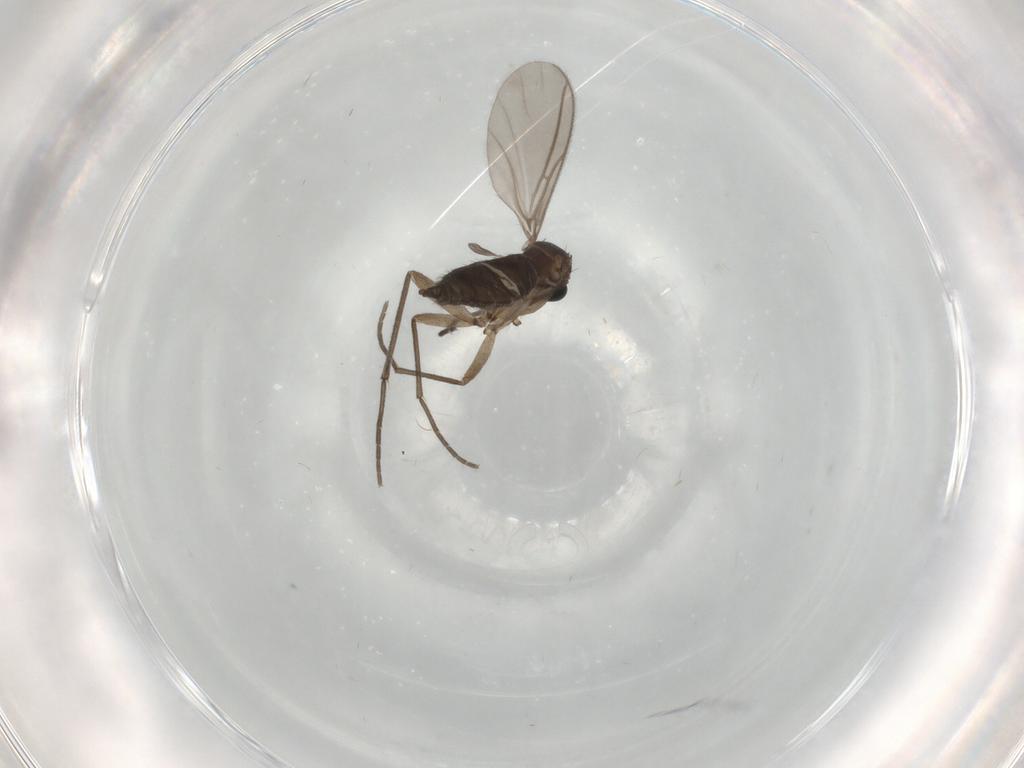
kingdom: Animalia
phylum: Arthropoda
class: Insecta
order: Diptera
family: Sciaridae
